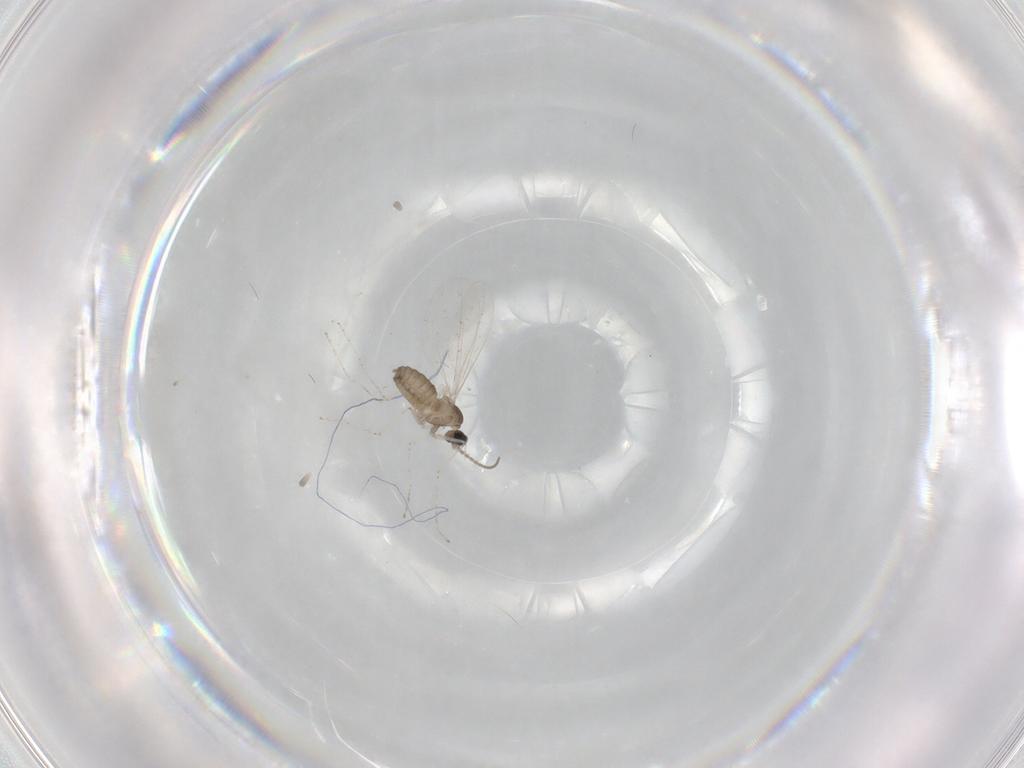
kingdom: Animalia
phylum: Arthropoda
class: Insecta
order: Diptera
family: Cecidomyiidae
